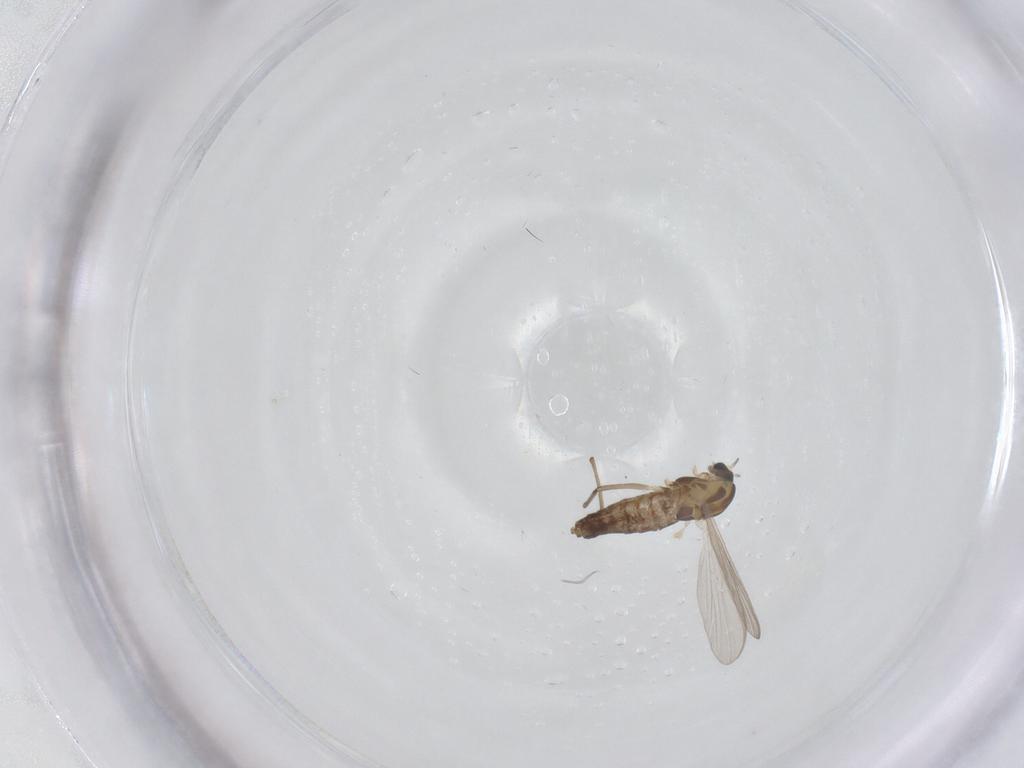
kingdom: Animalia
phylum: Arthropoda
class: Insecta
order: Diptera
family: Chironomidae
